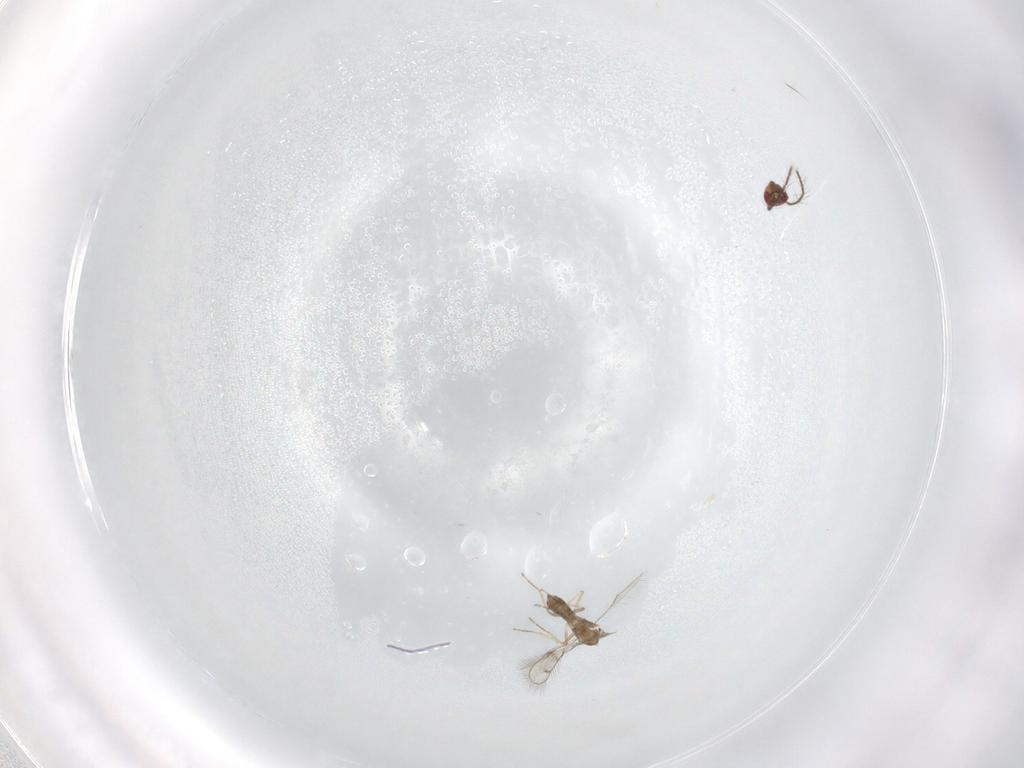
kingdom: Animalia
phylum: Arthropoda
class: Insecta
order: Hymenoptera
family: Eulophidae
